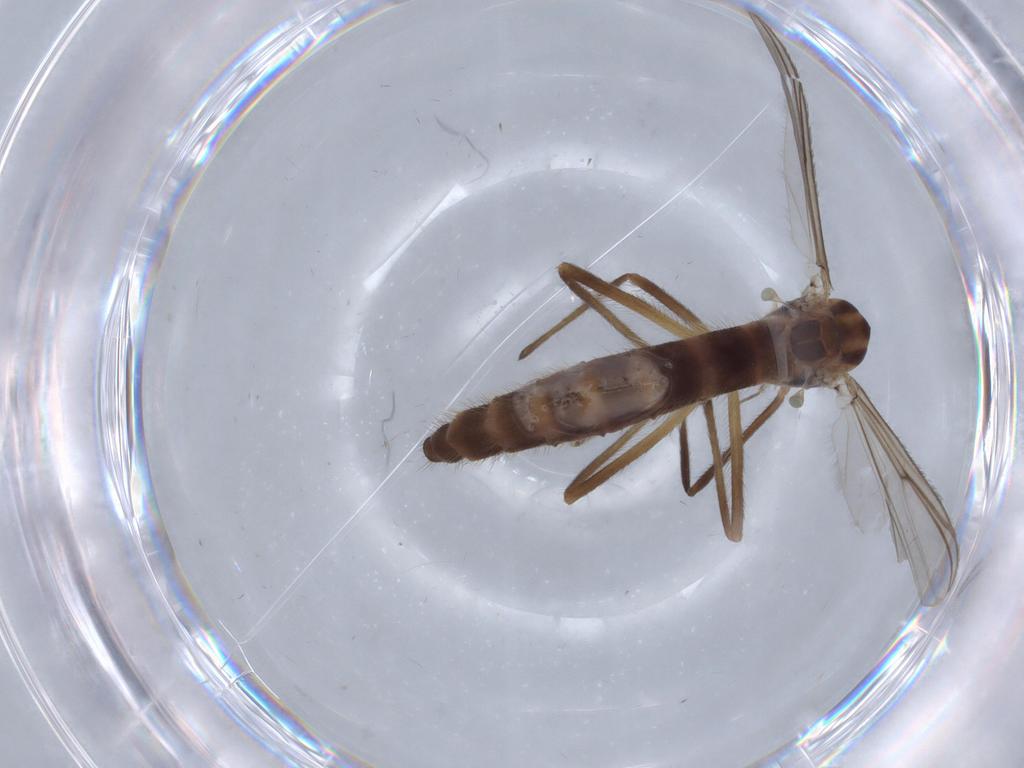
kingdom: Animalia
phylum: Arthropoda
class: Insecta
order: Diptera
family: Chironomidae
